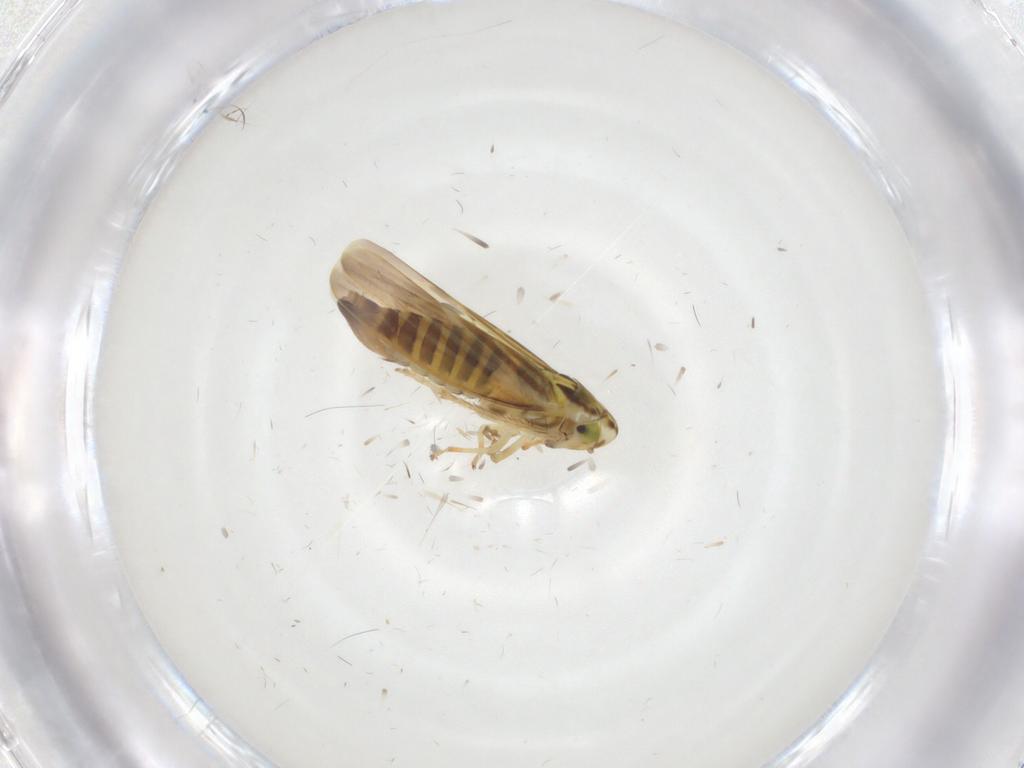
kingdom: Animalia
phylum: Arthropoda
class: Insecta
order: Hemiptera
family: Cicadellidae
